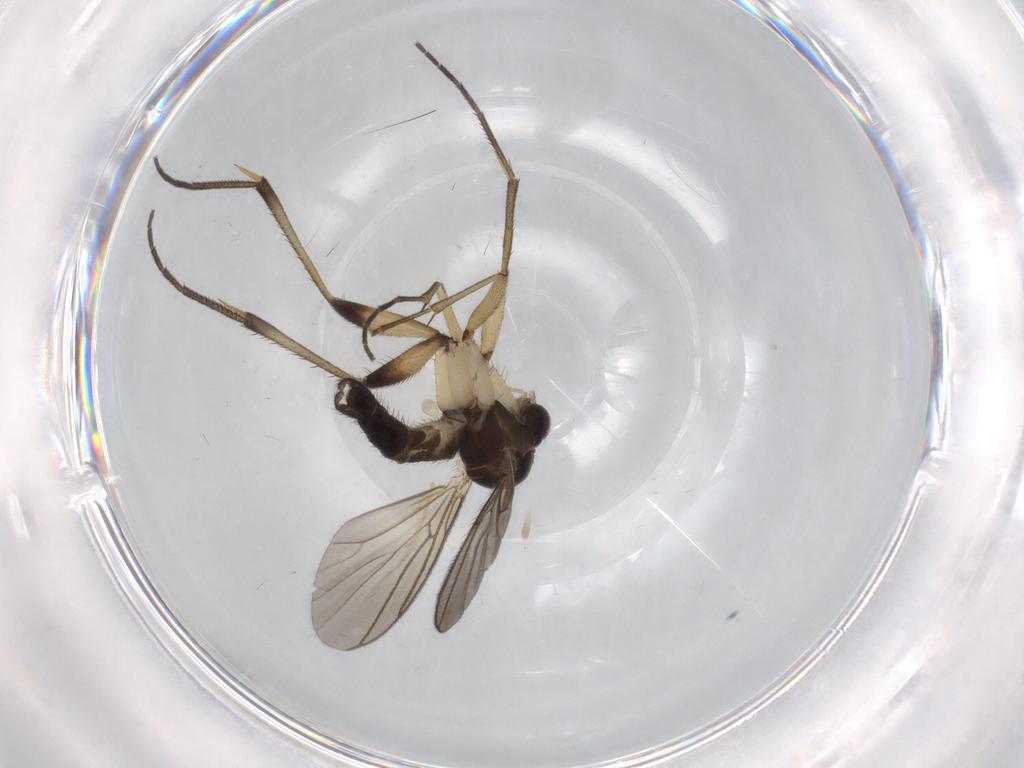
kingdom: Animalia
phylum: Arthropoda
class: Insecta
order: Diptera
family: Mycetophilidae
